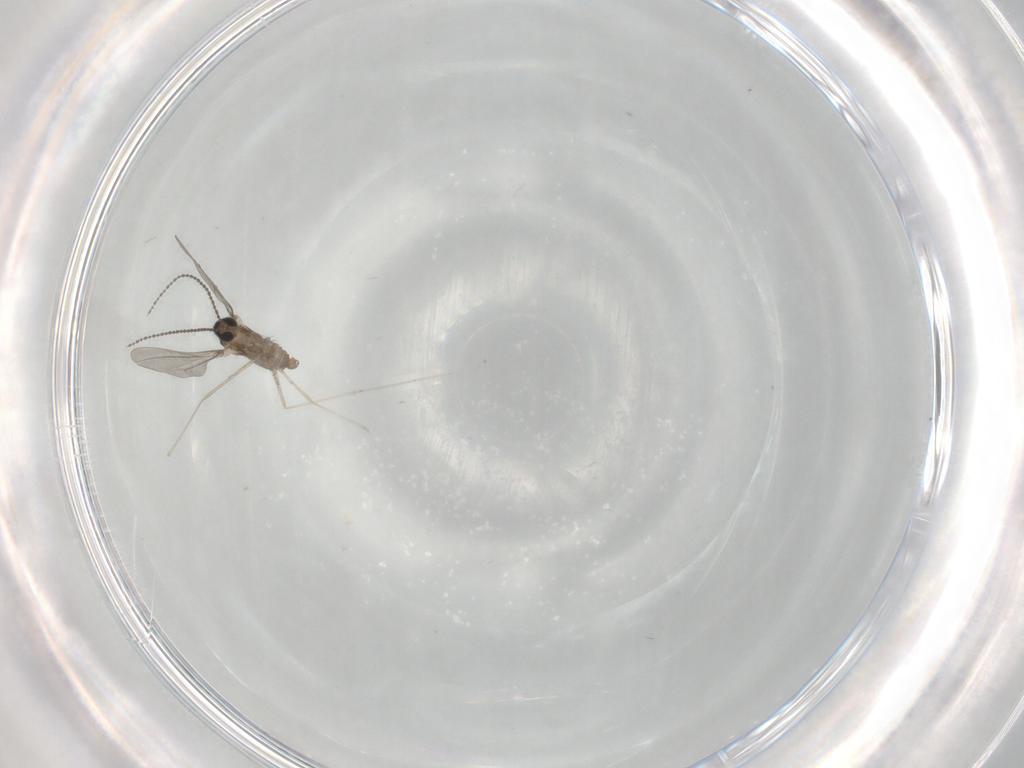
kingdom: Animalia
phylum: Arthropoda
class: Insecta
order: Diptera
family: Cecidomyiidae
